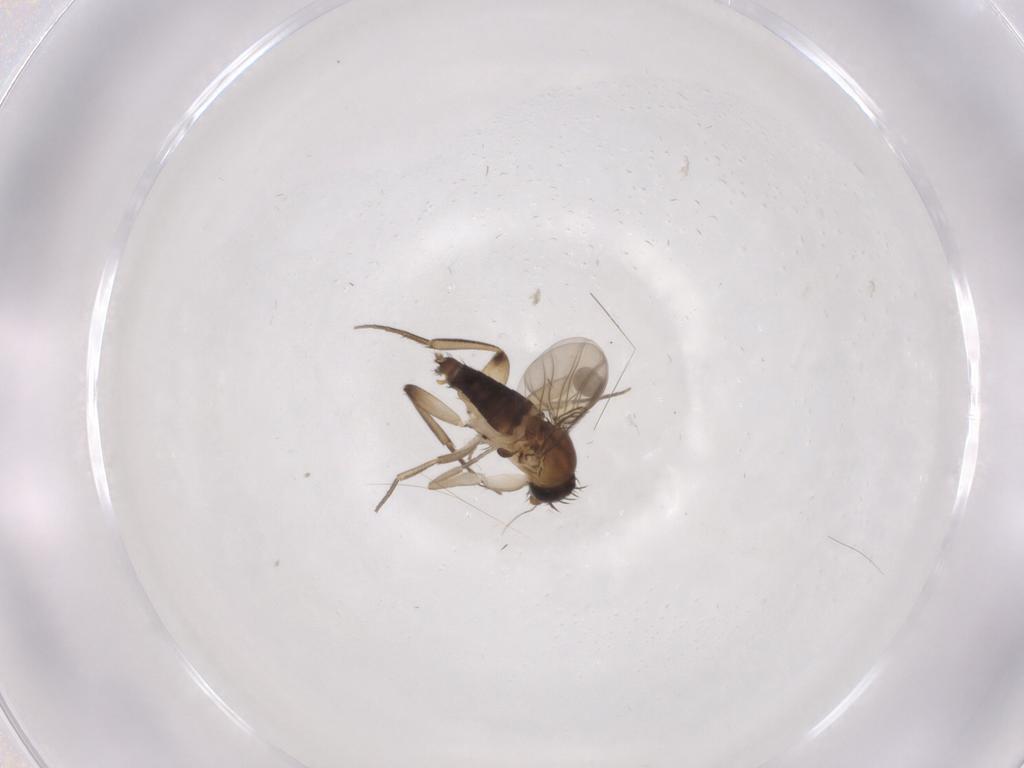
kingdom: Animalia
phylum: Arthropoda
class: Insecta
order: Diptera
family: Phoridae
